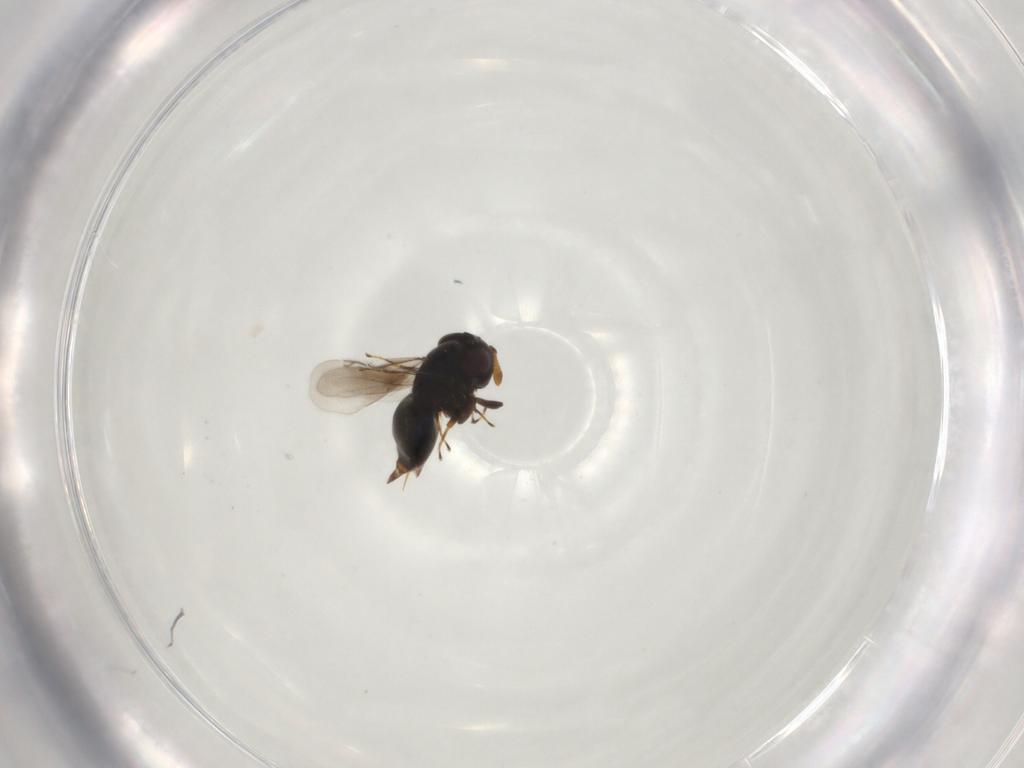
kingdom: Animalia
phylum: Arthropoda
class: Insecta
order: Hymenoptera
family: Encyrtidae
